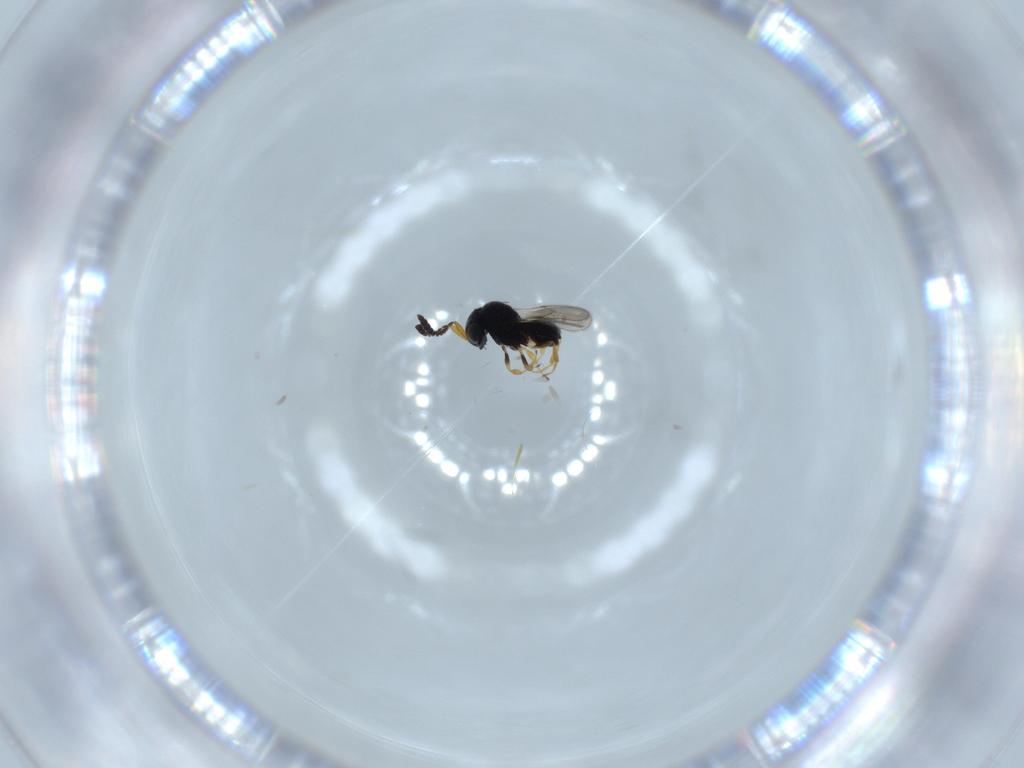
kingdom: Animalia
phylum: Arthropoda
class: Insecta
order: Hymenoptera
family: Scelionidae
